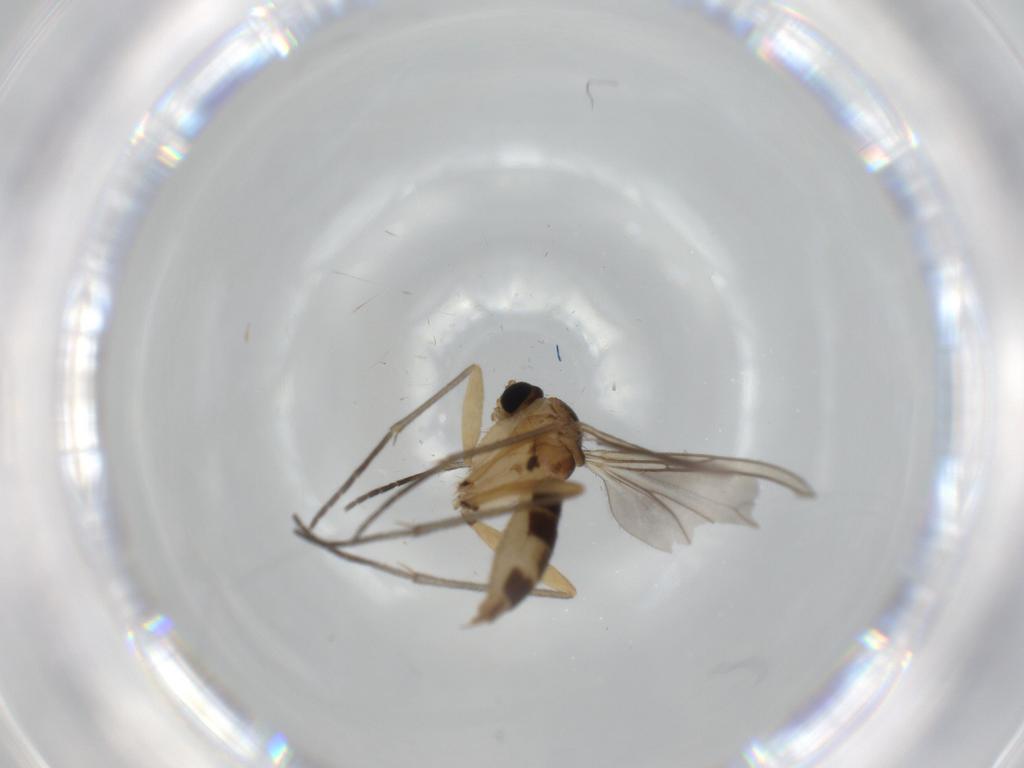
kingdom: Animalia
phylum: Arthropoda
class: Insecta
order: Diptera
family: Sciaridae
